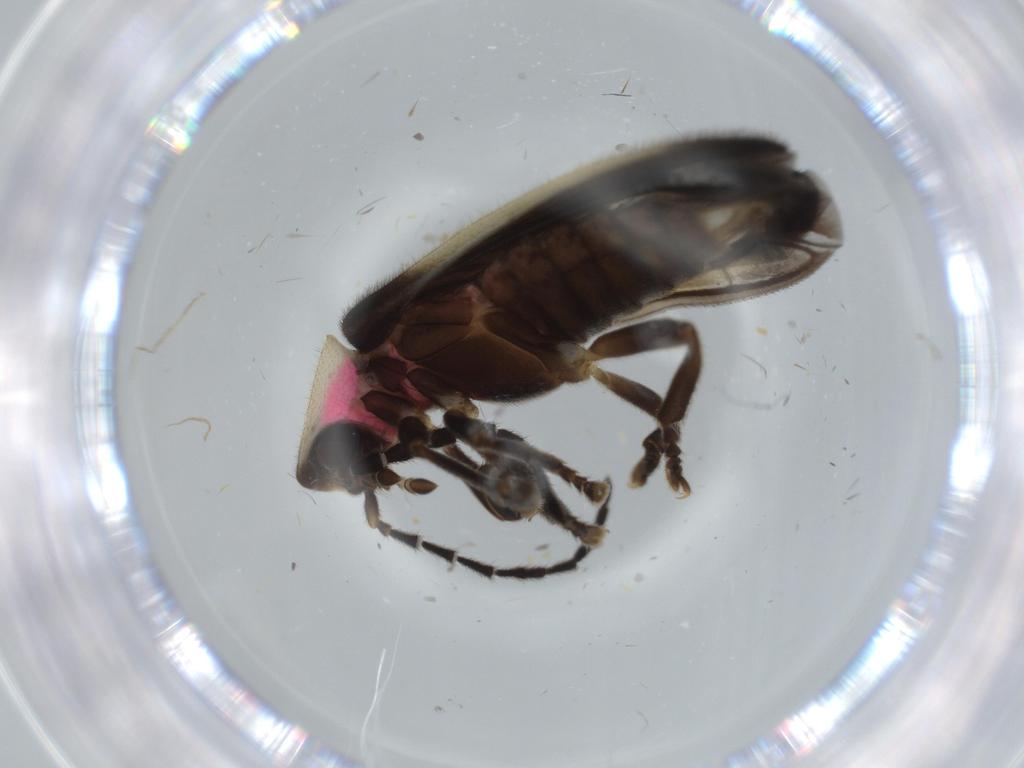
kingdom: Animalia
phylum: Arthropoda
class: Insecta
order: Coleoptera
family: Lampyridae
